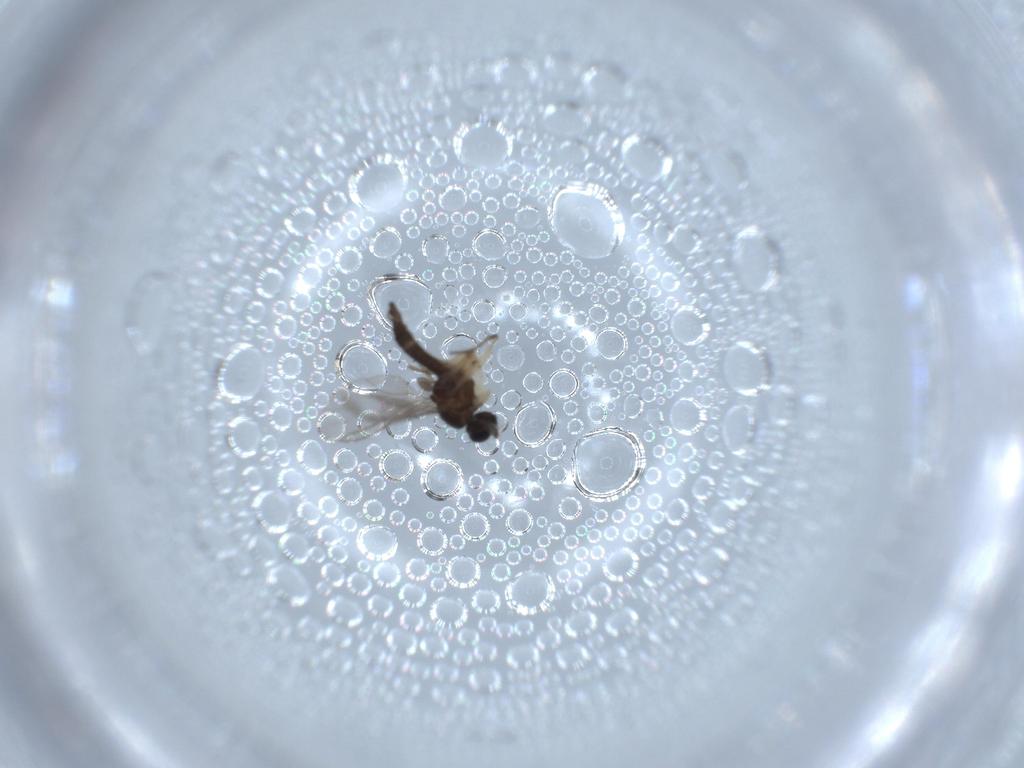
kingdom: Animalia
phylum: Arthropoda
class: Insecta
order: Diptera
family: Sciaridae
